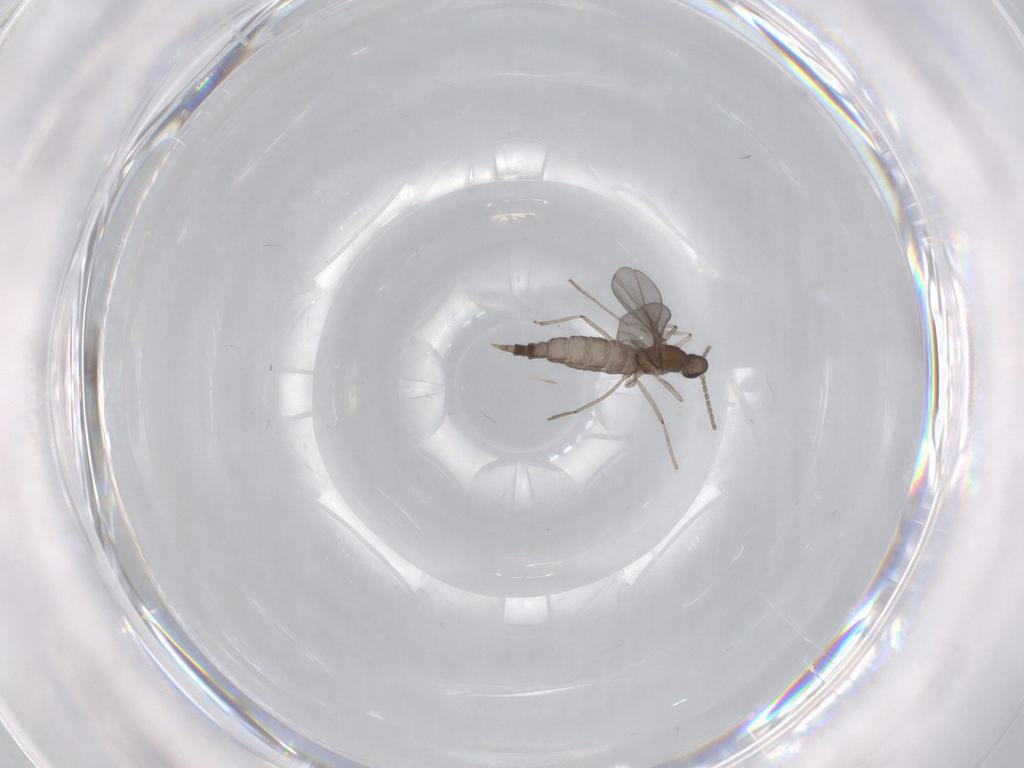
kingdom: Animalia
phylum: Arthropoda
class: Insecta
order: Diptera
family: Cecidomyiidae
